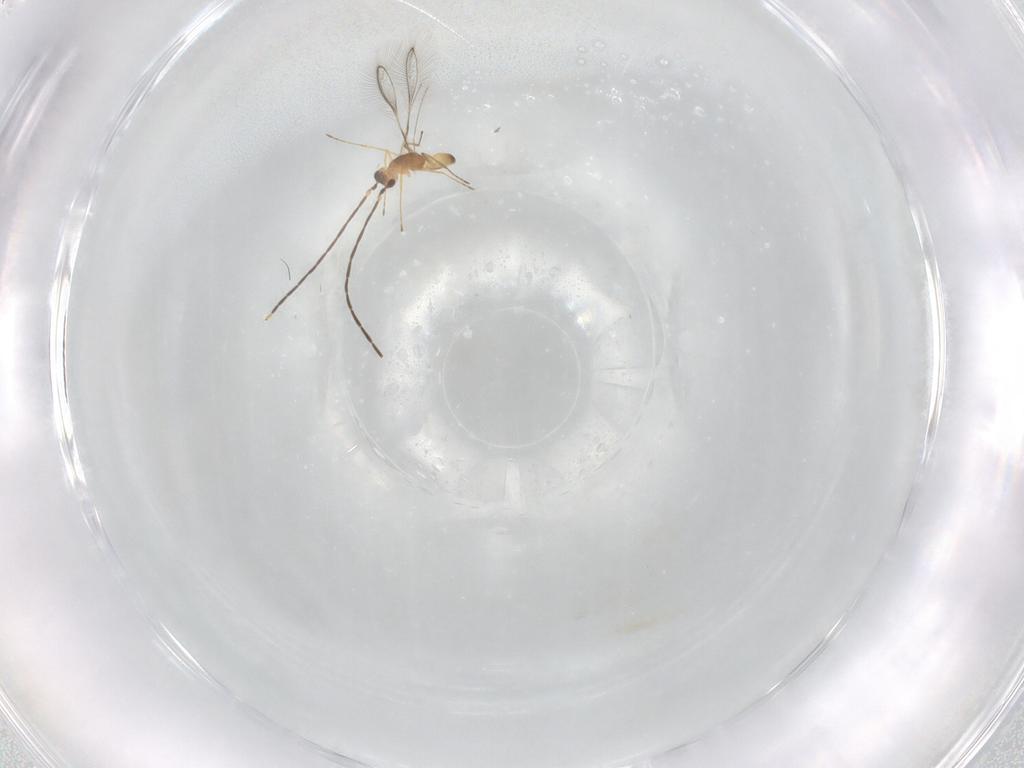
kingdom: Animalia
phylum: Arthropoda
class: Insecta
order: Hymenoptera
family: Mymaridae
